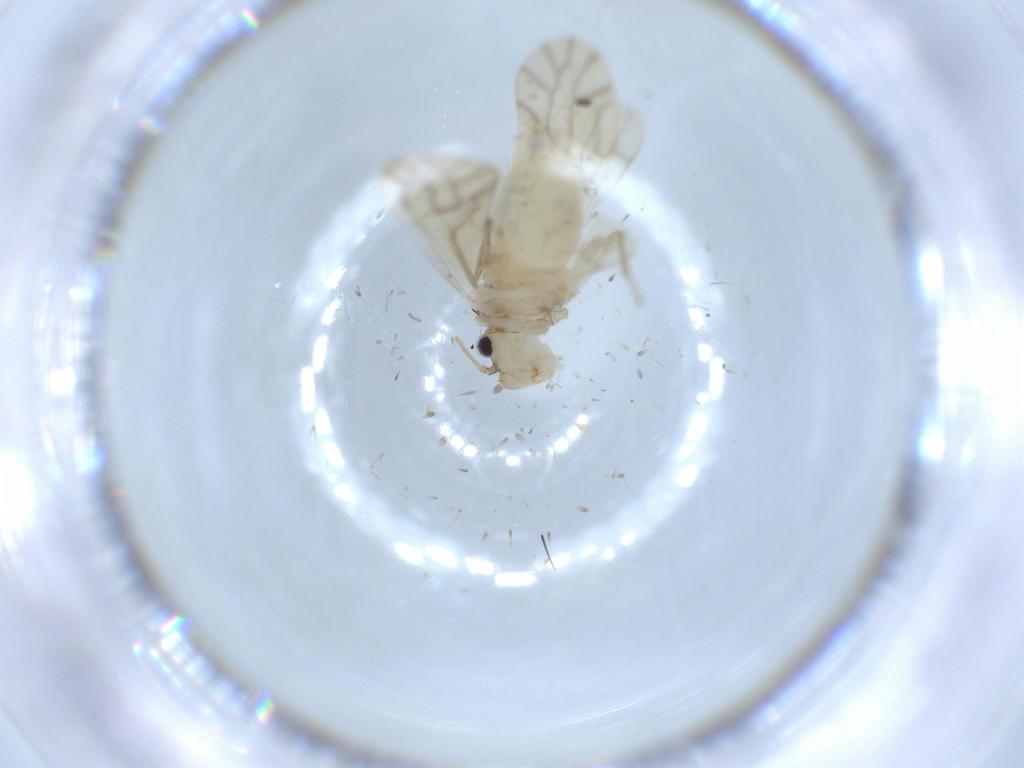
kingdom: Animalia
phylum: Arthropoda
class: Insecta
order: Psocodea
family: Caeciliusidae
